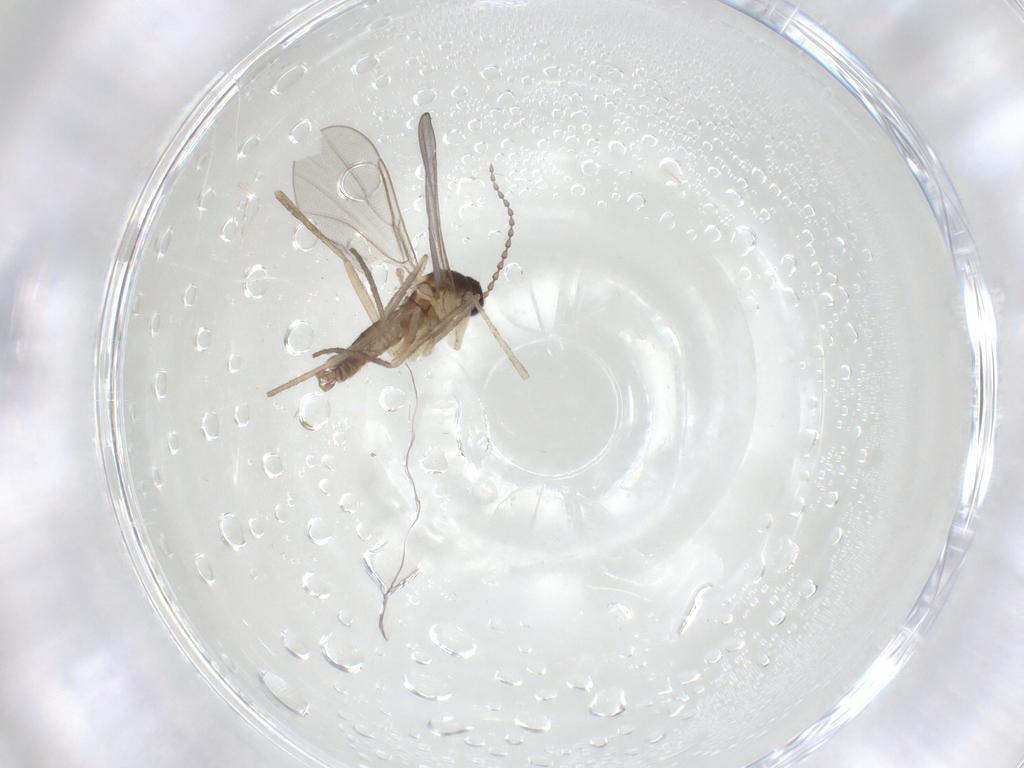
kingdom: Animalia
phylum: Arthropoda
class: Insecta
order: Diptera
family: Cecidomyiidae
